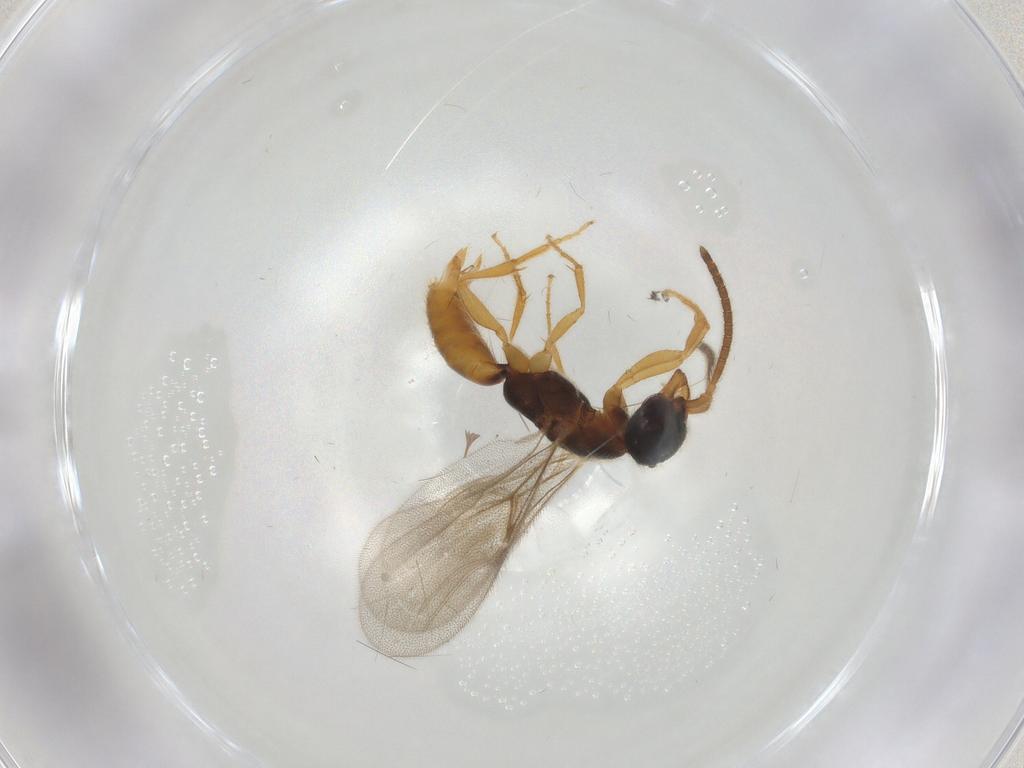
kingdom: Animalia
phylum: Arthropoda
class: Insecta
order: Hymenoptera
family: Bethylidae
